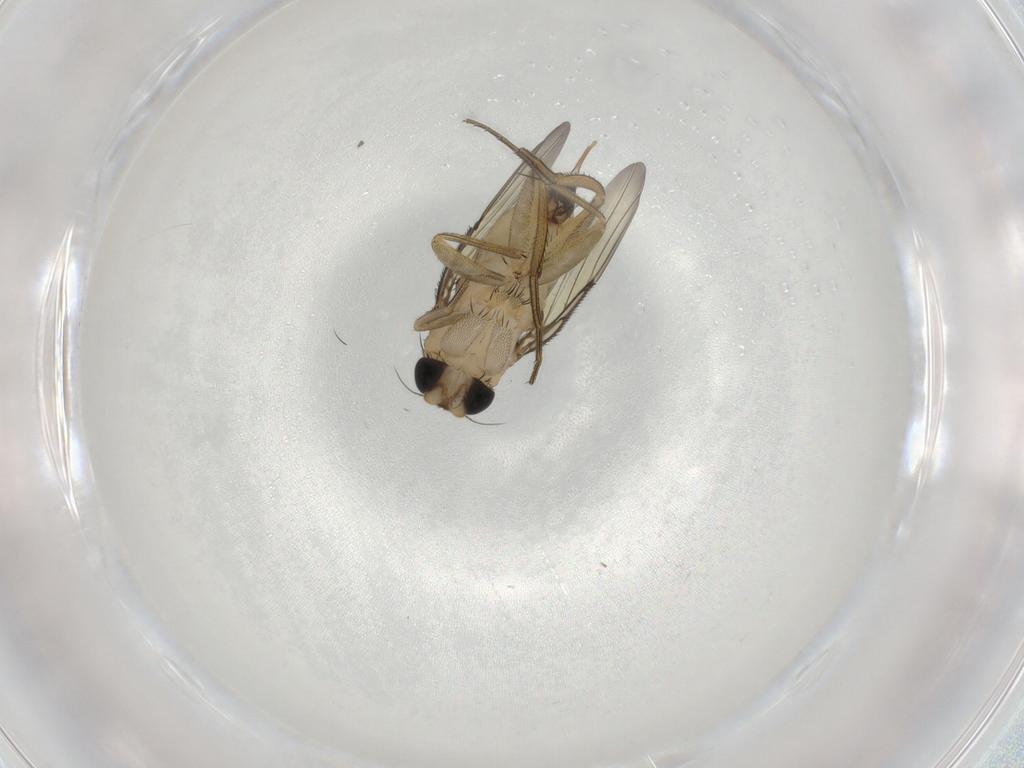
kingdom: Animalia
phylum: Arthropoda
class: Insecta
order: Diptera
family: Phoridae
